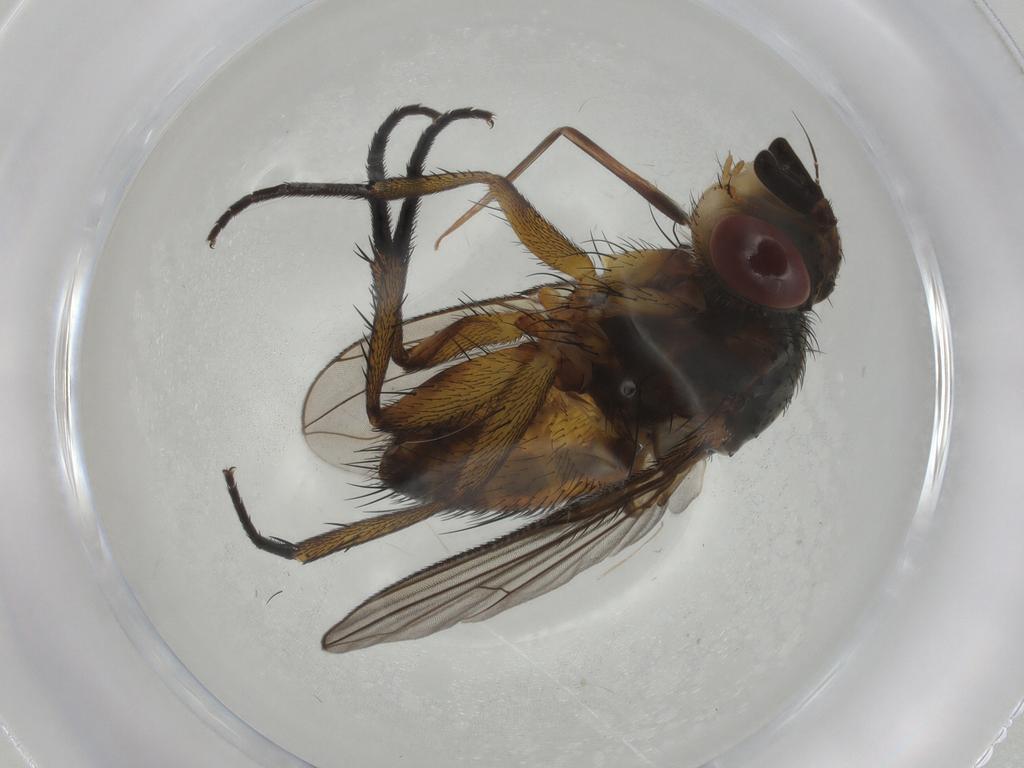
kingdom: Animalia
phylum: Arthropoda
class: Insecta
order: Diptera
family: Tachinidae
